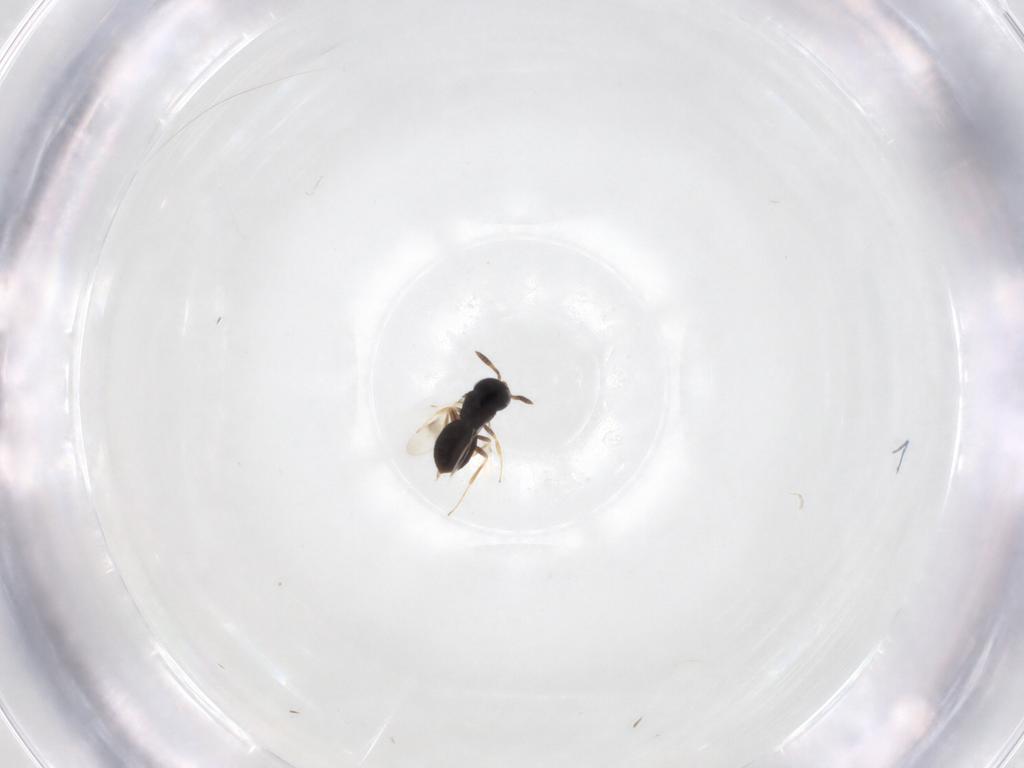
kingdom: Animalia
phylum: Arthropoda
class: Insecta
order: Hymenoptera
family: Scelionidae
